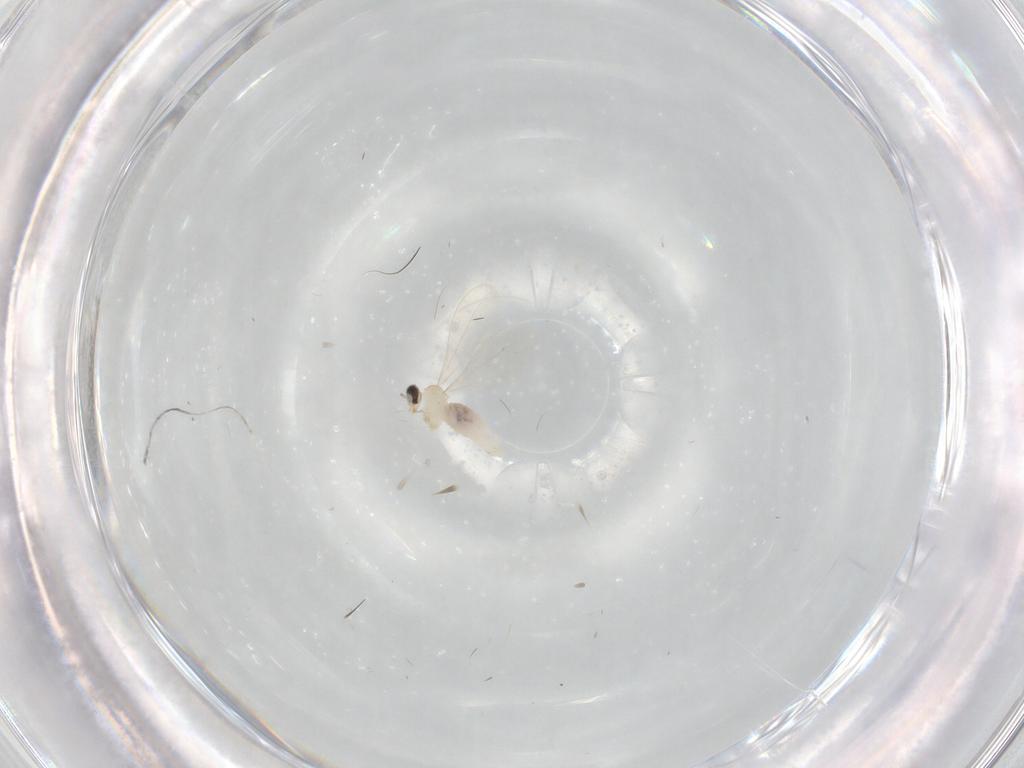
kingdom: Animalia
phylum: Arthropoda
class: Insecta
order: Diptera
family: Cecidomyiidae
